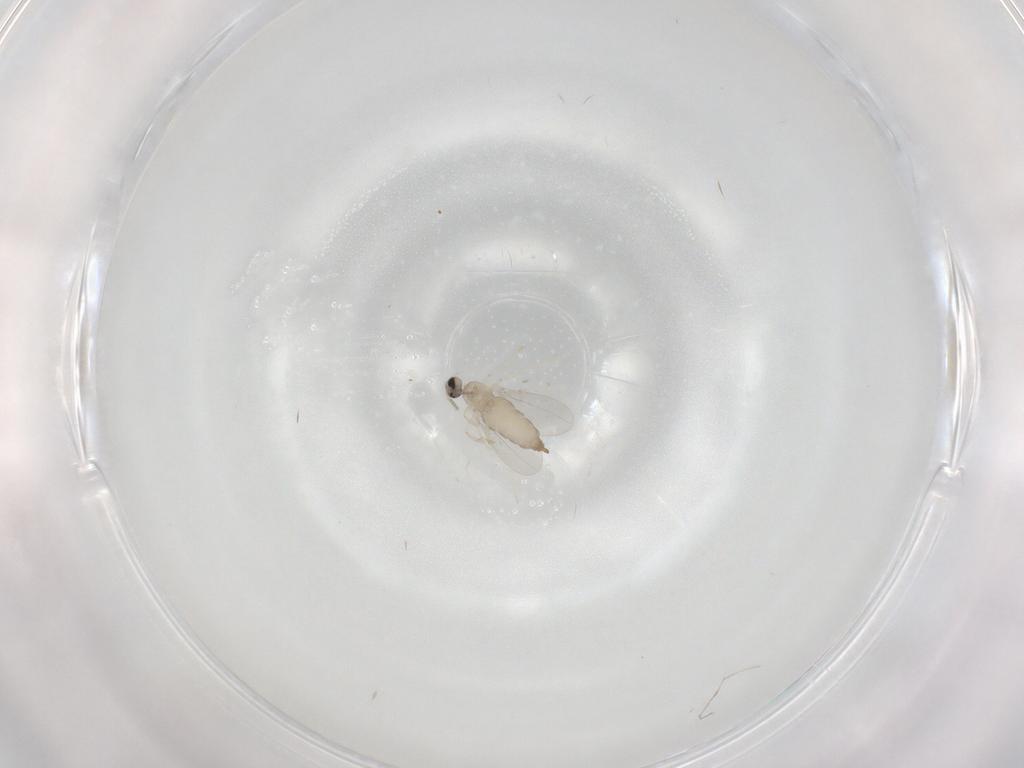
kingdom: Animalia
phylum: Arthropoda
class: Insecta
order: Diptera
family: Cecidomyiidae
